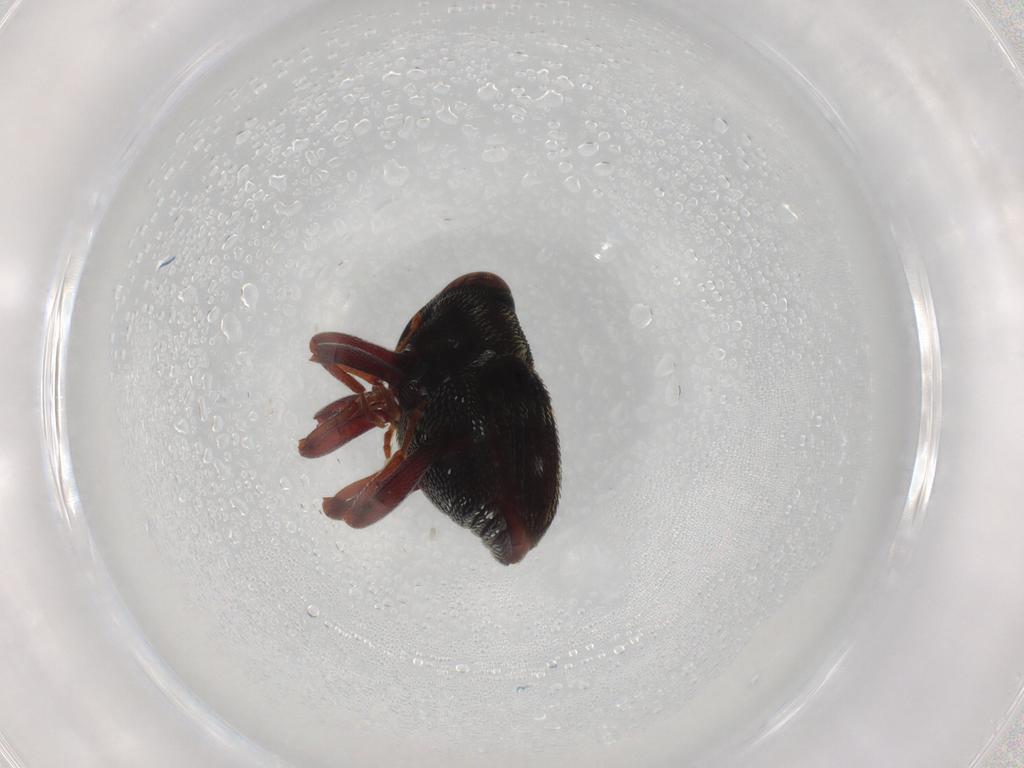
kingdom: Animalia
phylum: Arthropoda
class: Insecta
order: Coleoptera
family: Curculionidae
